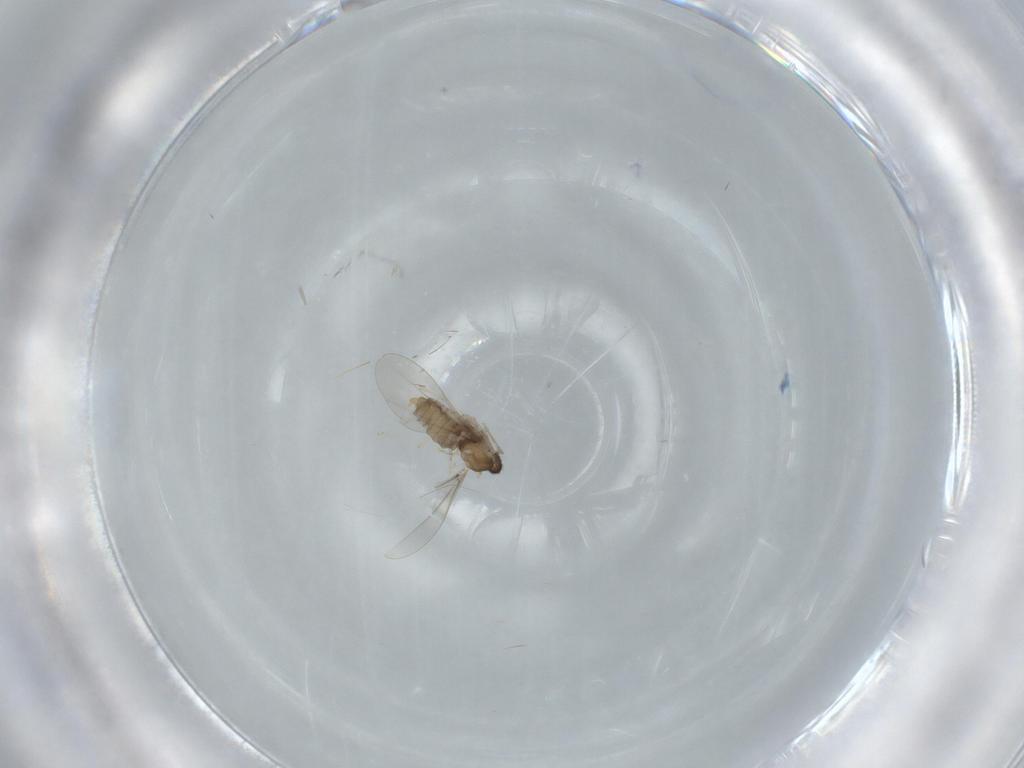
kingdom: Animalia
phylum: Arthropoda
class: Insecta
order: Diptera
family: Cecidomyiidae
